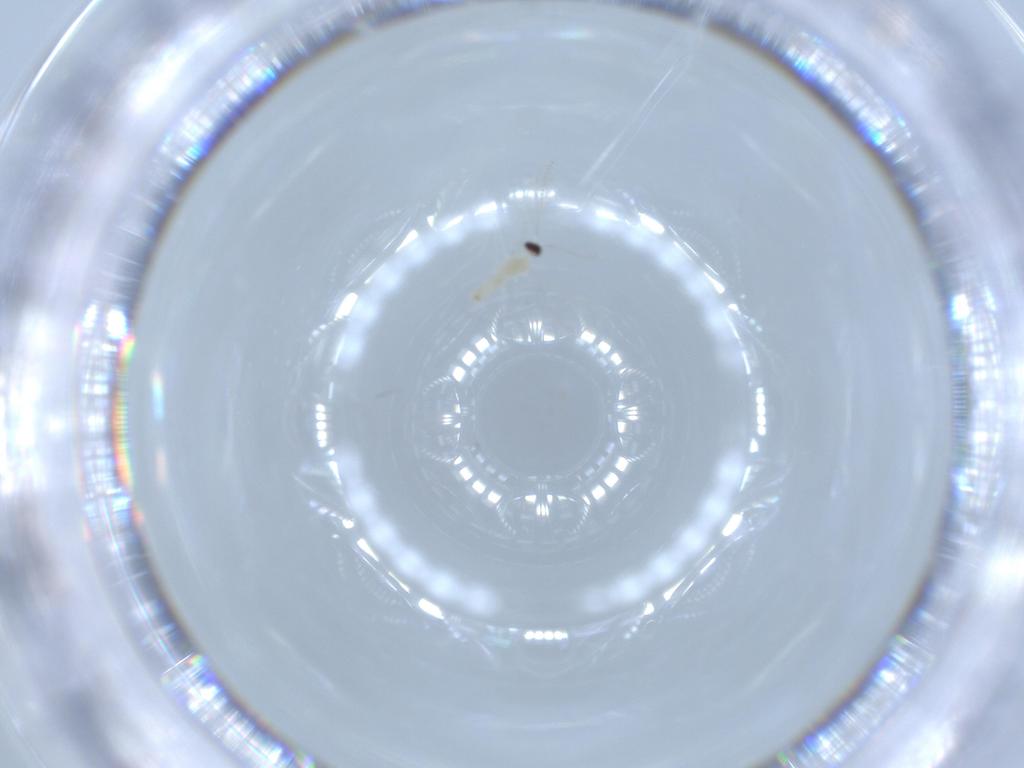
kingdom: Animalia
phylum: Arthropoda
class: Insecta
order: Diptera
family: Cecidomyiidae
